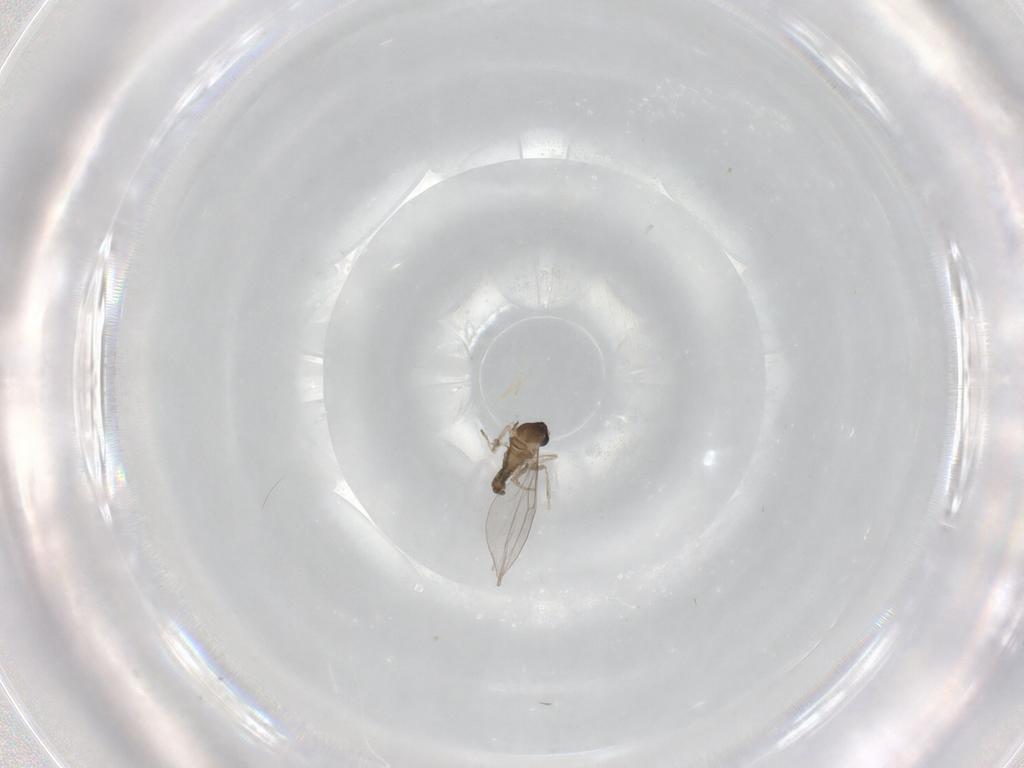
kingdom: Animalia
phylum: Arthropoda
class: Insecta
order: Diptera
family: Cecidomyiidae
